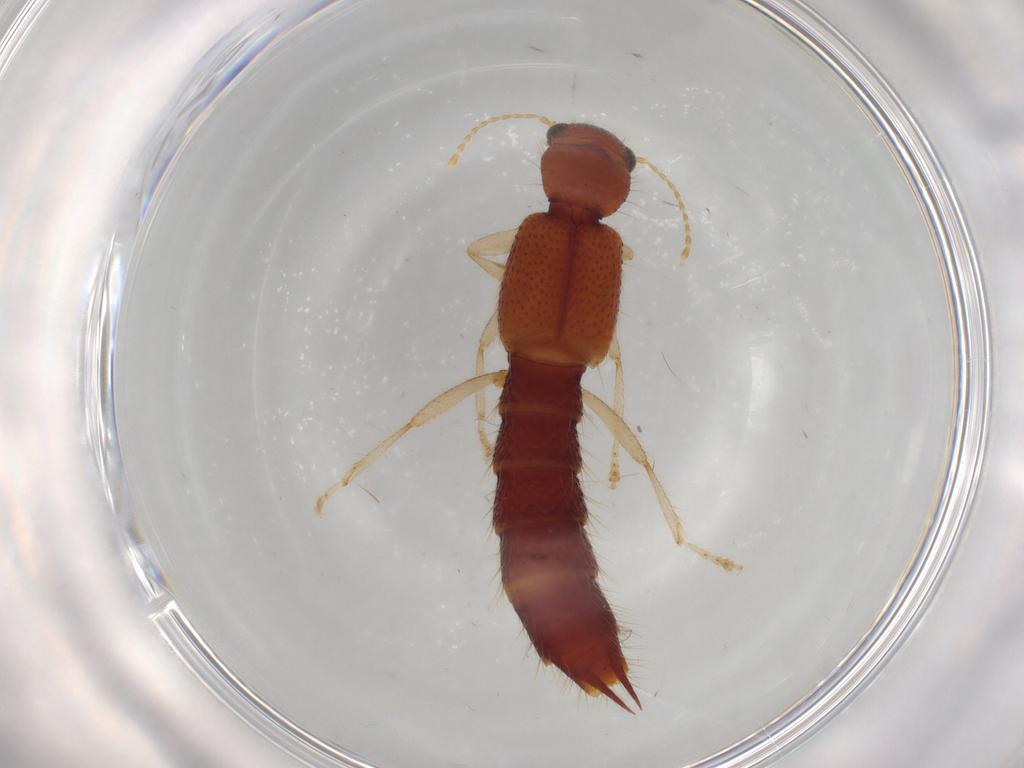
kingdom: Animalia
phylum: Arthropoda
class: Insecta
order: Coleoptera
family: Staphylinidae
